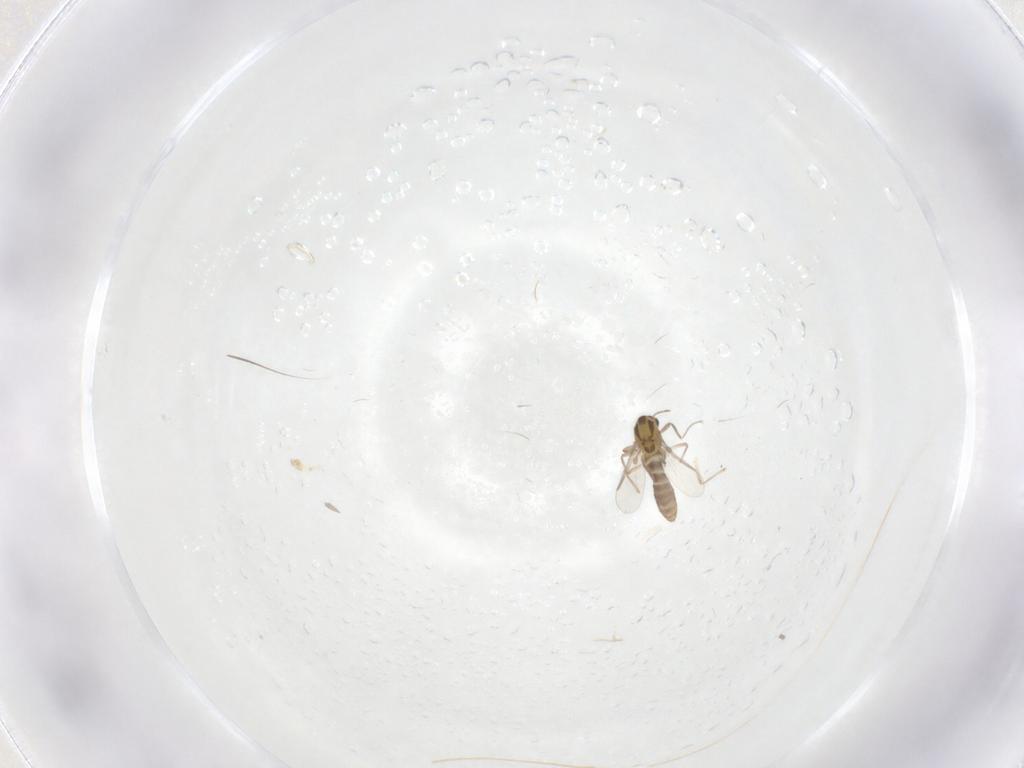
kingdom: Animalia
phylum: Arthropoda
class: Insecta
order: Diptera
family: Chironomidae
